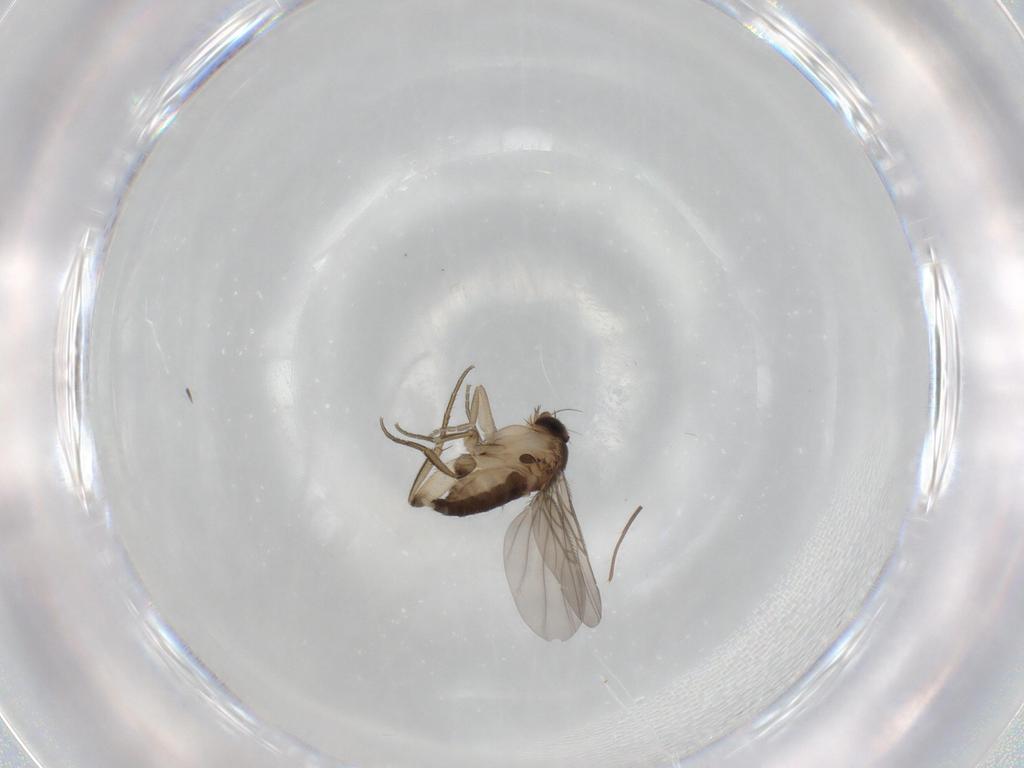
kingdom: Animalia
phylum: Arthropoda
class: Insecta
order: Diptera
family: Phoridae
